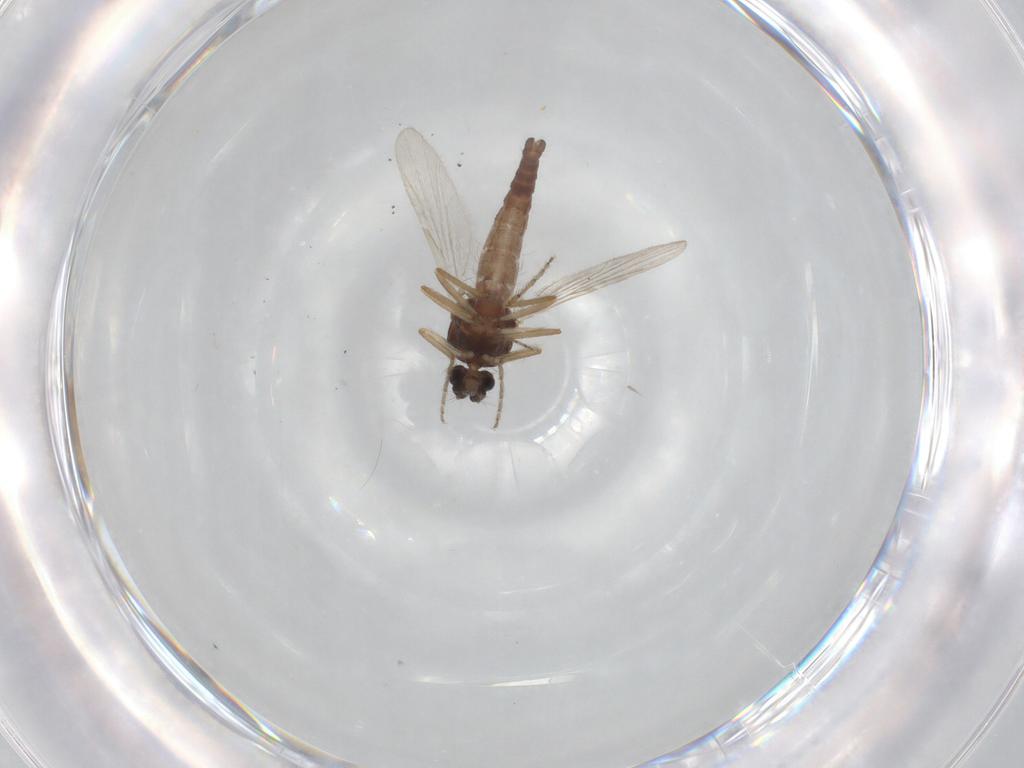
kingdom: Animalia
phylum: Arthropoda
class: Insecta
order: Diptera
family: Ceratopogonidae
